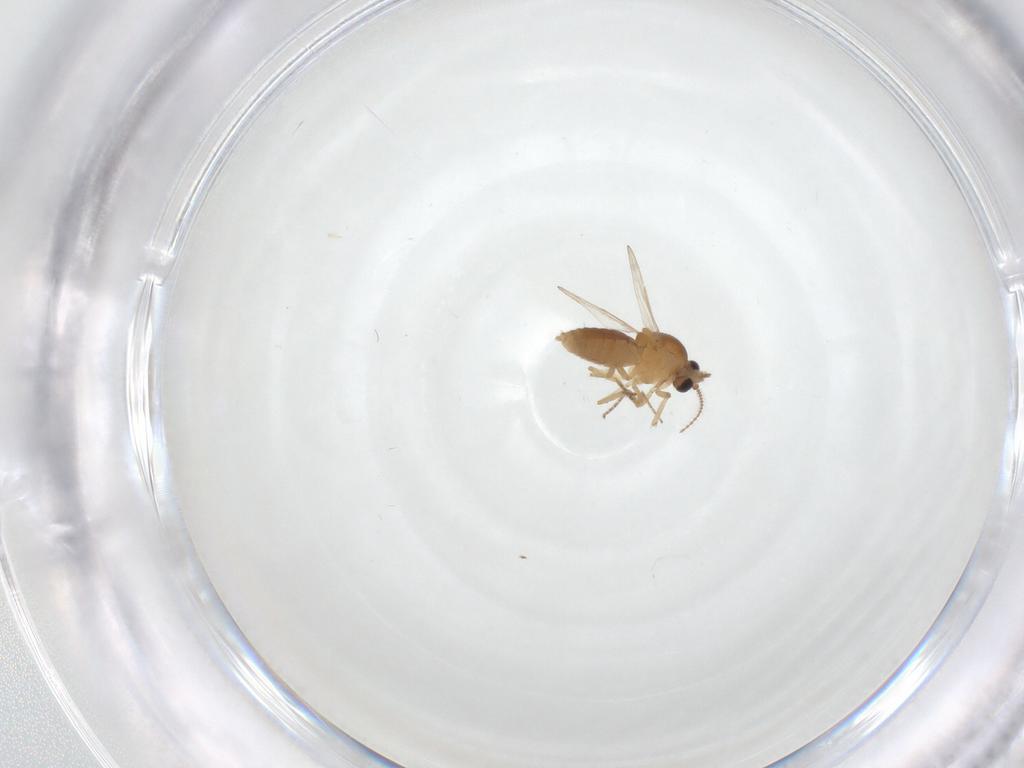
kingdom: Animalia
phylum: Arthropoda
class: Insecta
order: Diptera
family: Ceratopogonidae
